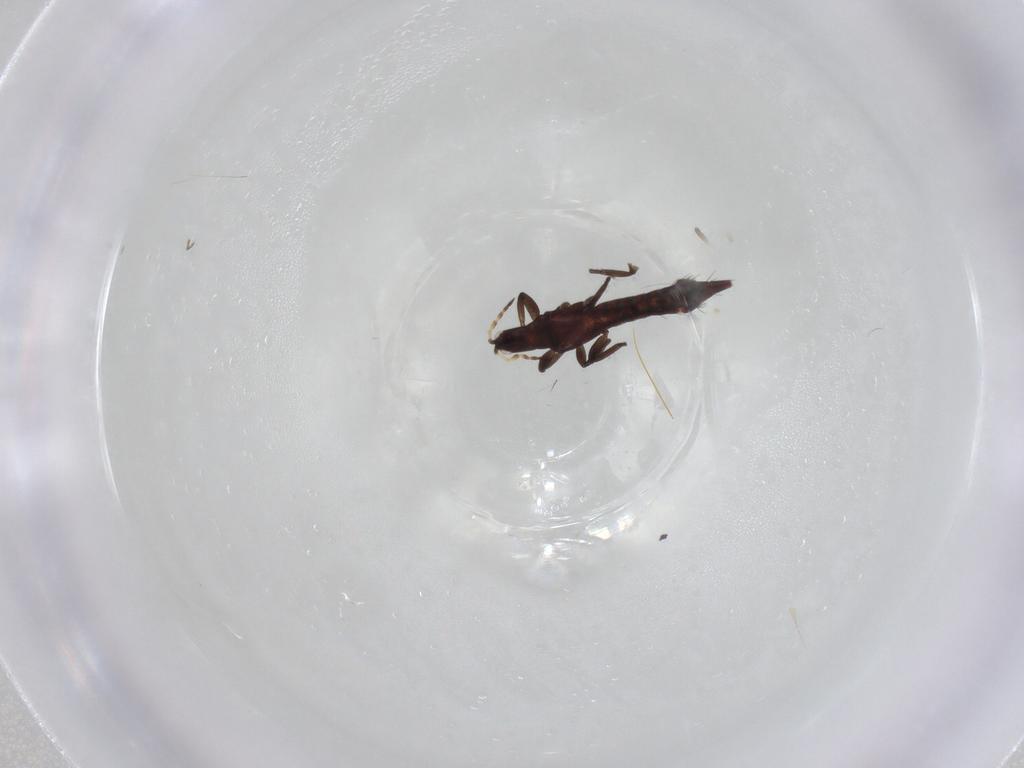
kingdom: Animalia
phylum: Arthropoda
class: Insecta
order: Thysanoptera
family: Phlaeothripidae
